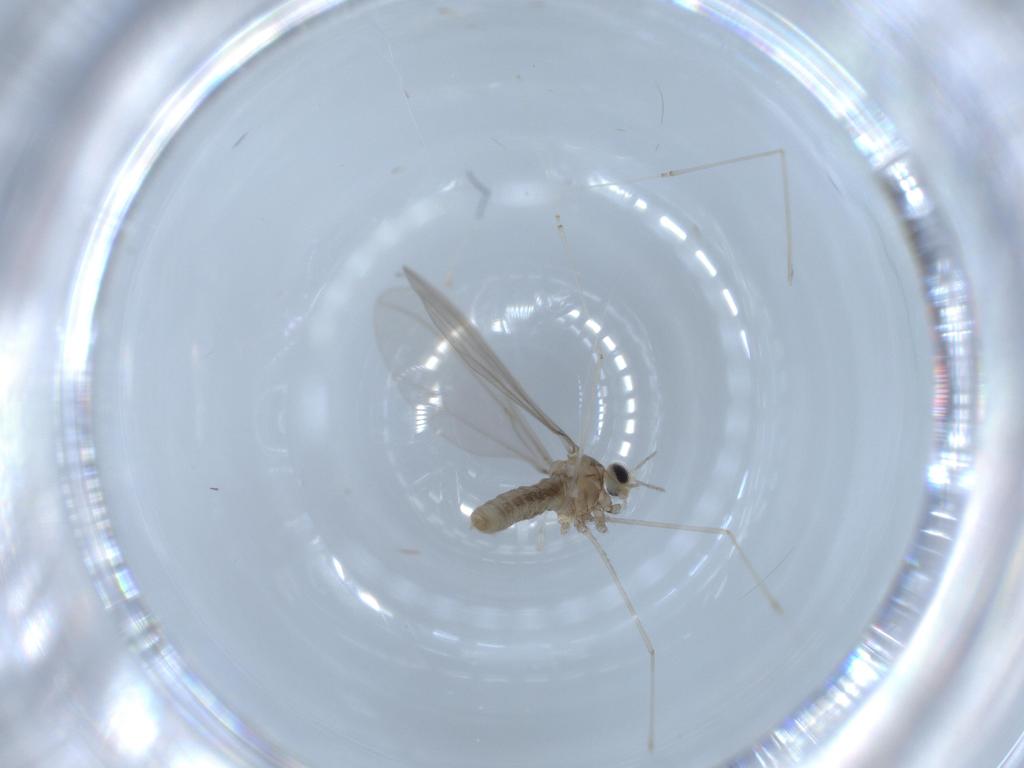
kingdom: Animalia
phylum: Arthropoda
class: Insecta
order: Diptera
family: Cecidomyiidae
